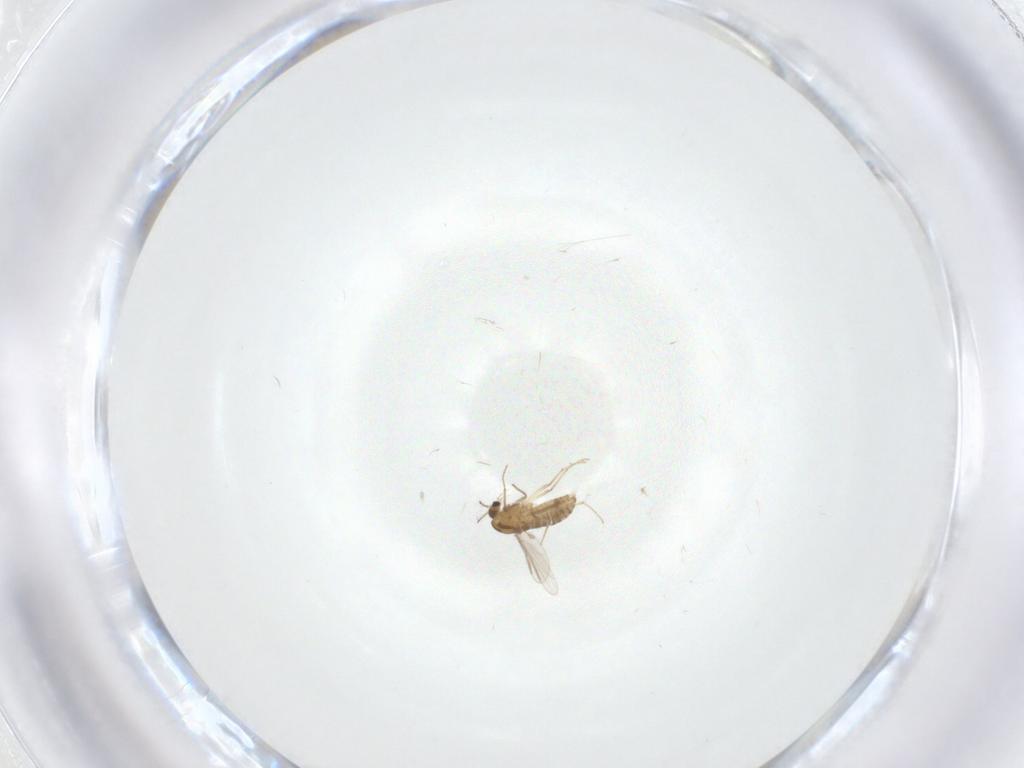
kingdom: Animalia
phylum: Arthropoda
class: Insecta
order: Diptera
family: Chironomidae
